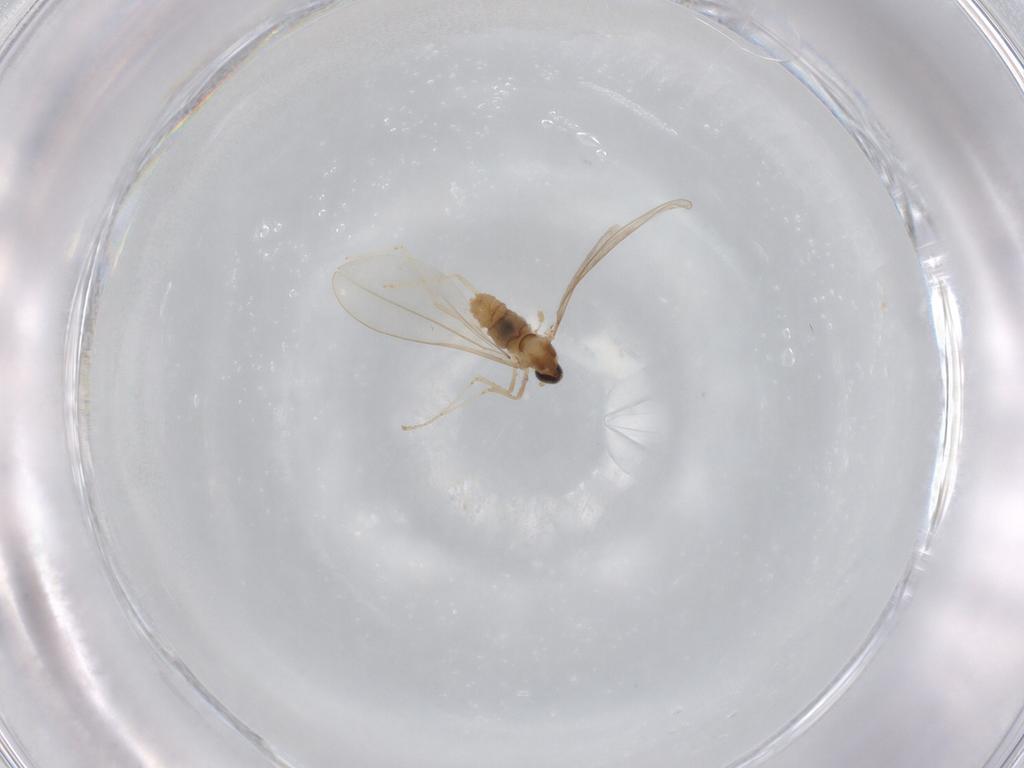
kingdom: Animalia
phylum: Arthropoda
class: Insecta
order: Diptera
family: Cecidomyiidae
